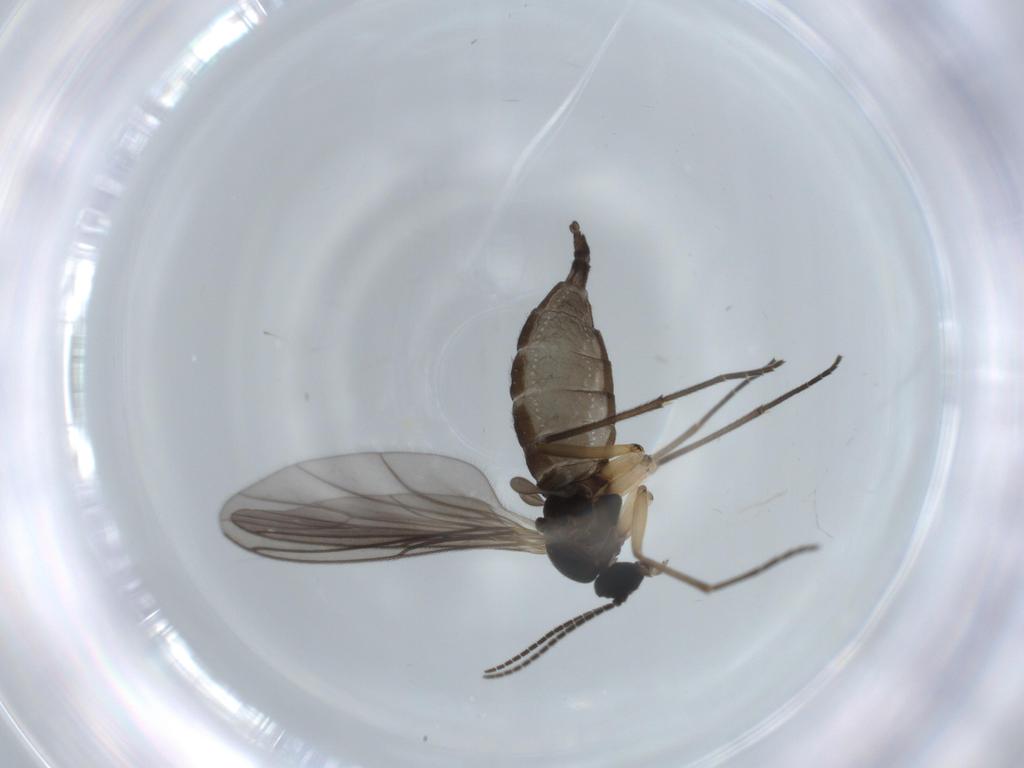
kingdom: Animalia
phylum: Arthropoda
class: Insecta
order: Diptera
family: Sciaridae
